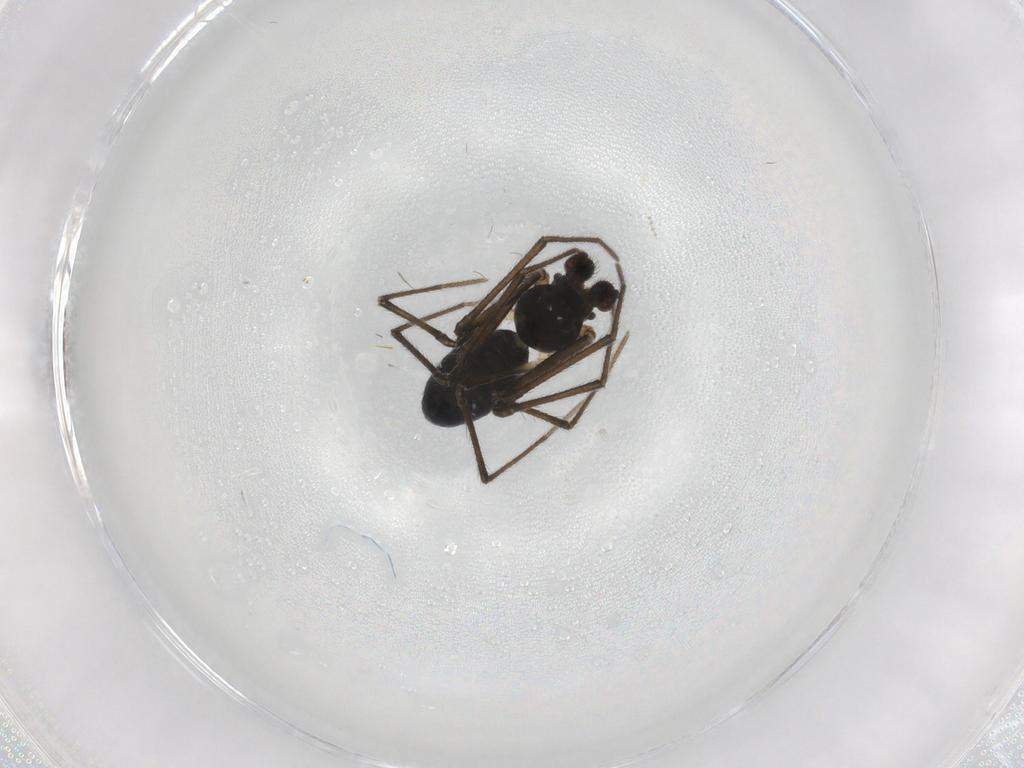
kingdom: Animalia
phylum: Arthropoda
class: Arachnida
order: Araneae
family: Linyphiidae
